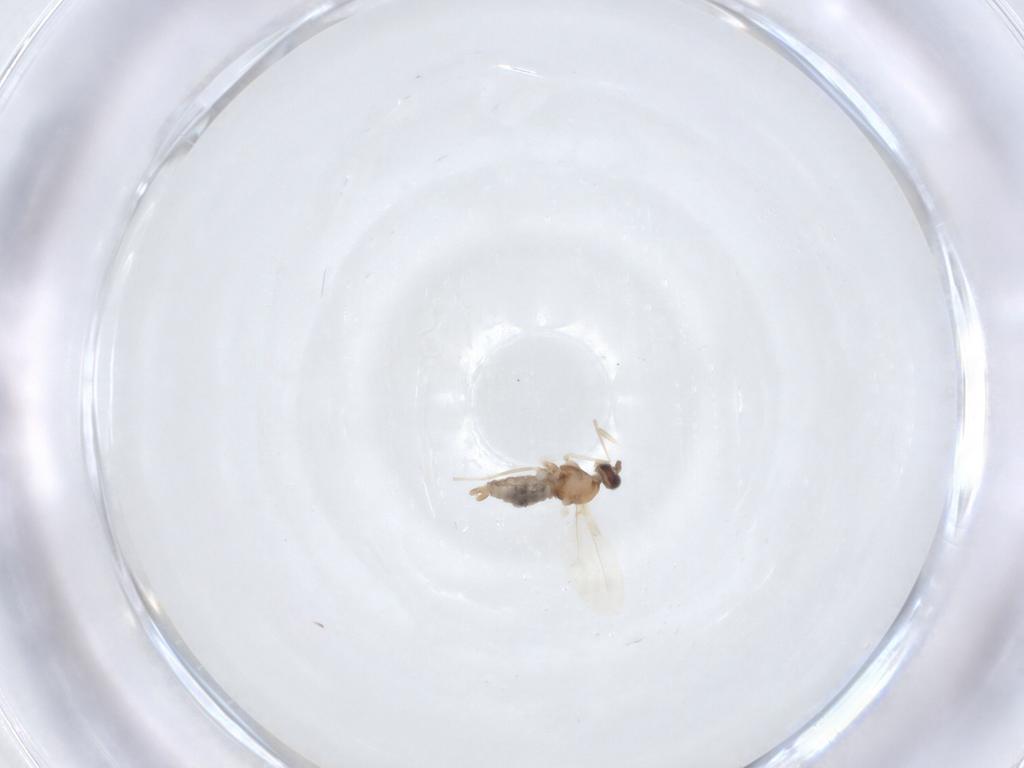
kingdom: Animalia
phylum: Arthropoda
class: Insecta
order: Diptera
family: Cecidomyiidae
